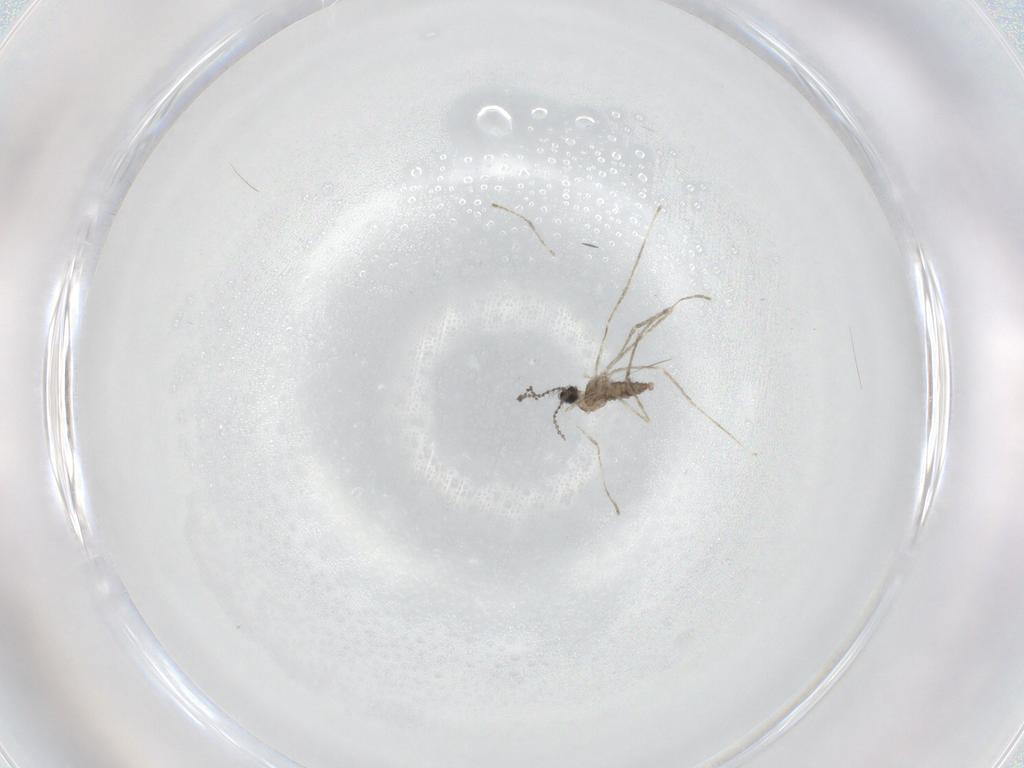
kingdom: Animalia
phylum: Arthropoda
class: Insecta
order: Diptera
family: Cecidomyiidae
